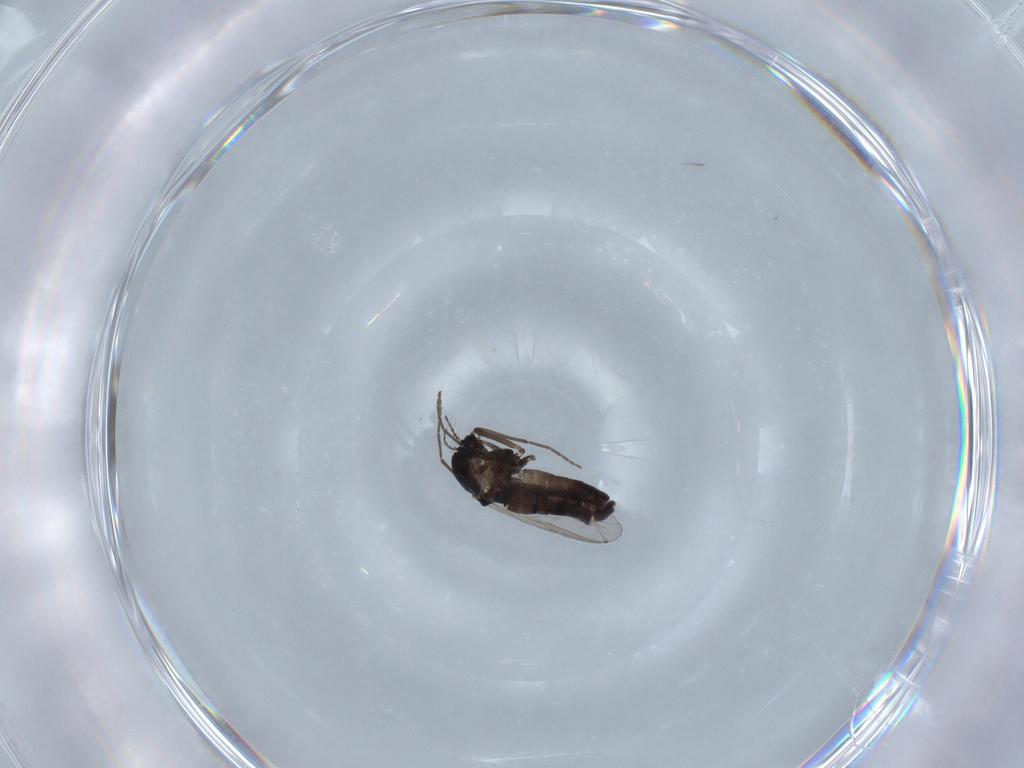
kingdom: Animalia
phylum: Arthropoda
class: Insecta
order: Diptera
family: Chironomidae
